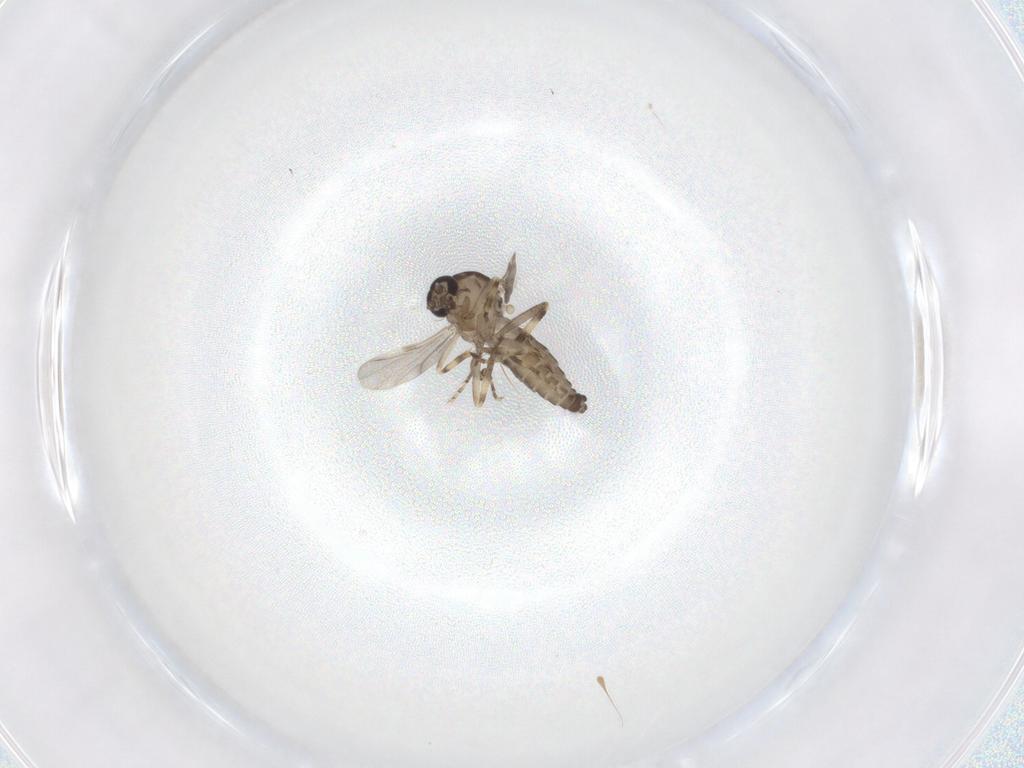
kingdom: Animalia
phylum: Arthropoda
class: Insecta
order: Diptera
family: Ceratopogonidae
